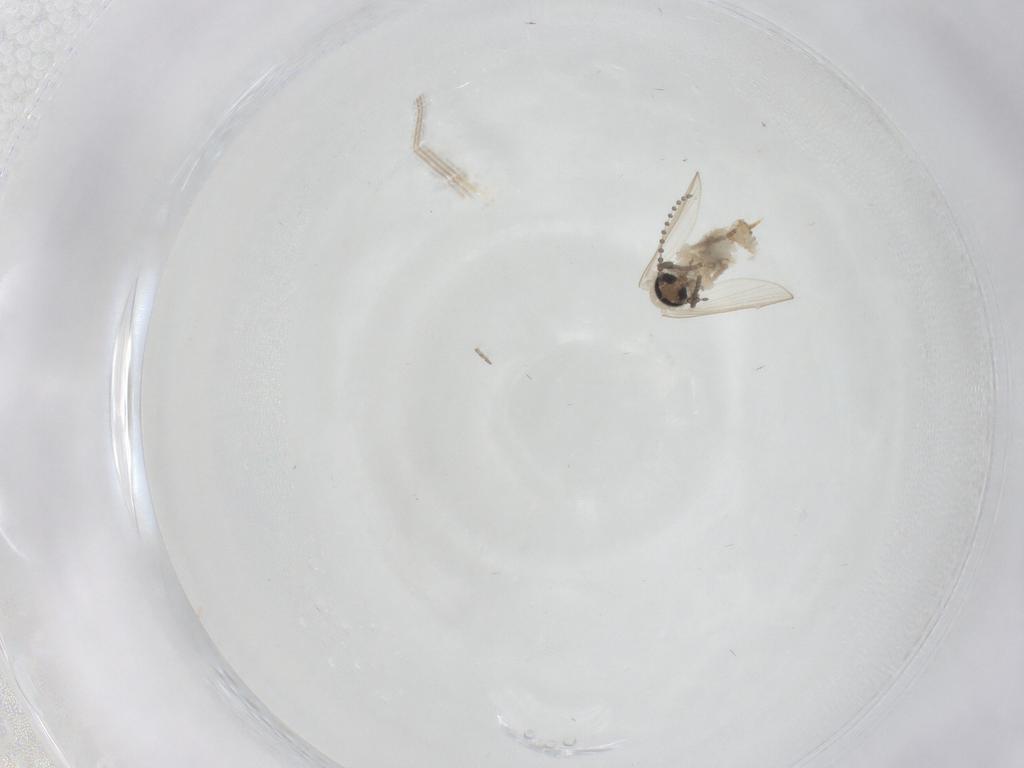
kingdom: Animalia
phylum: Arthropoda
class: Insecta
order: Diptera
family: Psychodidae
